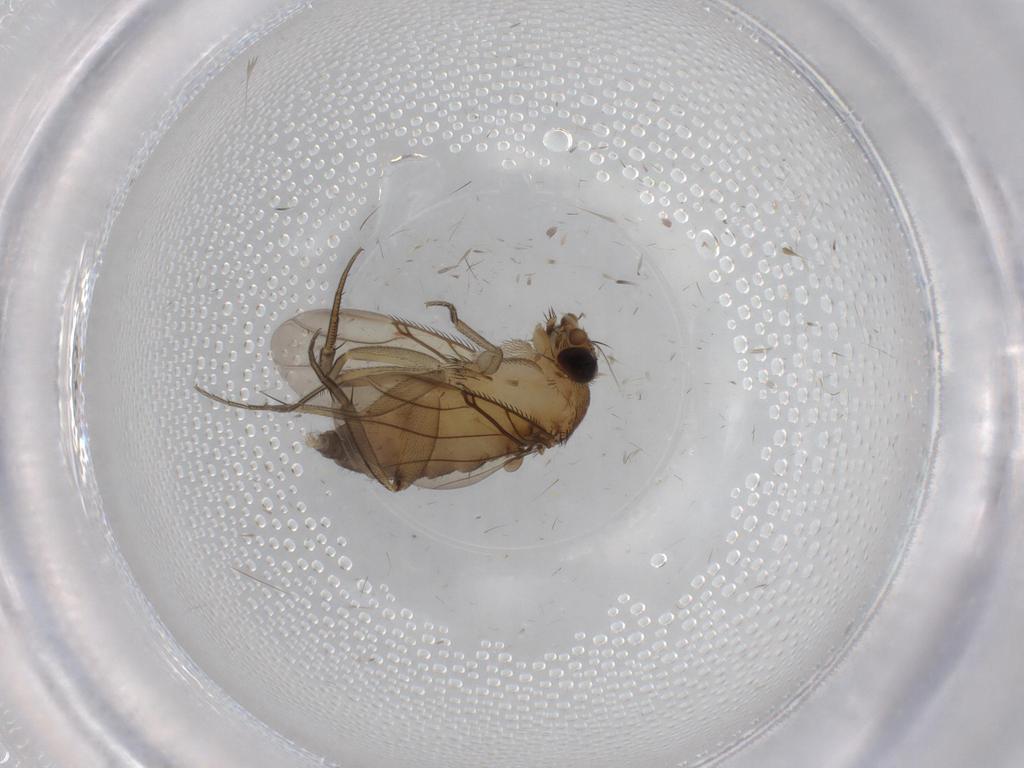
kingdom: Animalia
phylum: Arthropoda
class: Insecta
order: Diptera
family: Phoridae
